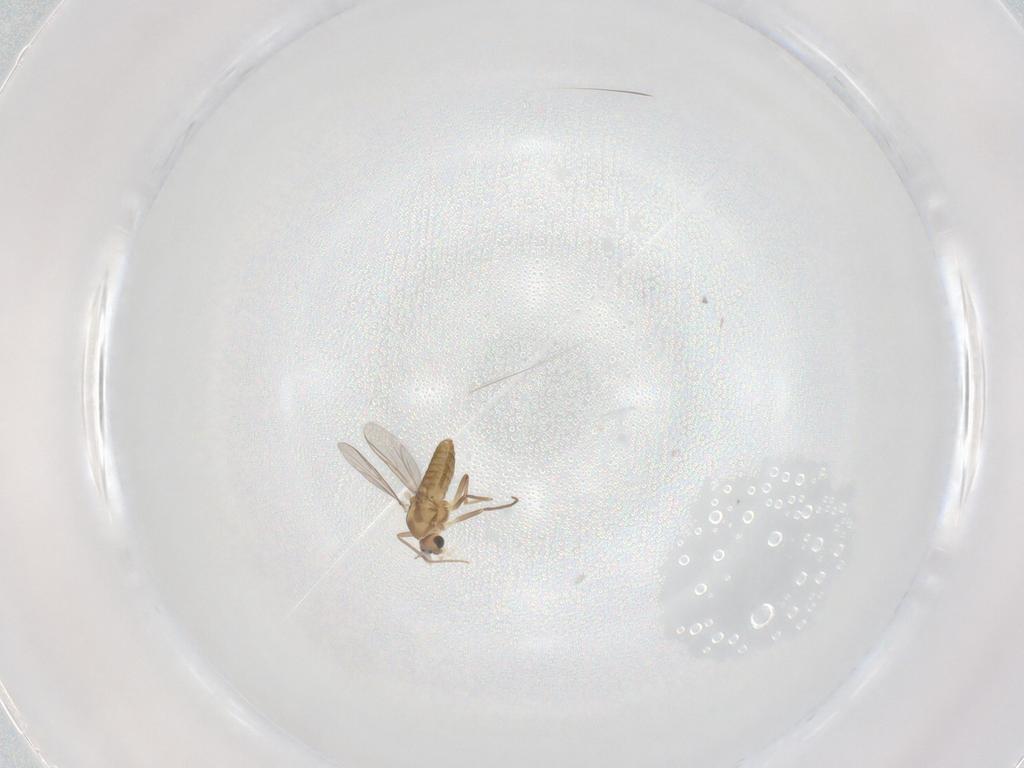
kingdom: Animalia
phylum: Arthropoda
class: Insecta
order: Diptera
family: Chironomidae
